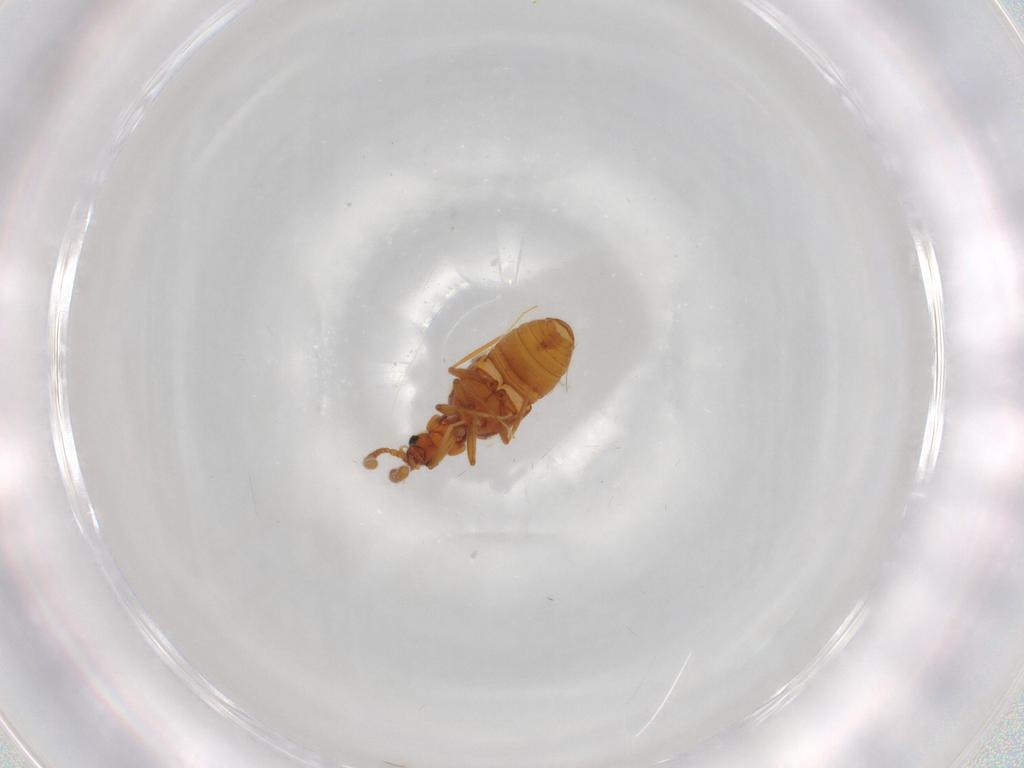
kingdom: Animalia
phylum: Arthropoda
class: Insecta
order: Coleoptera
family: Staphylinidae
